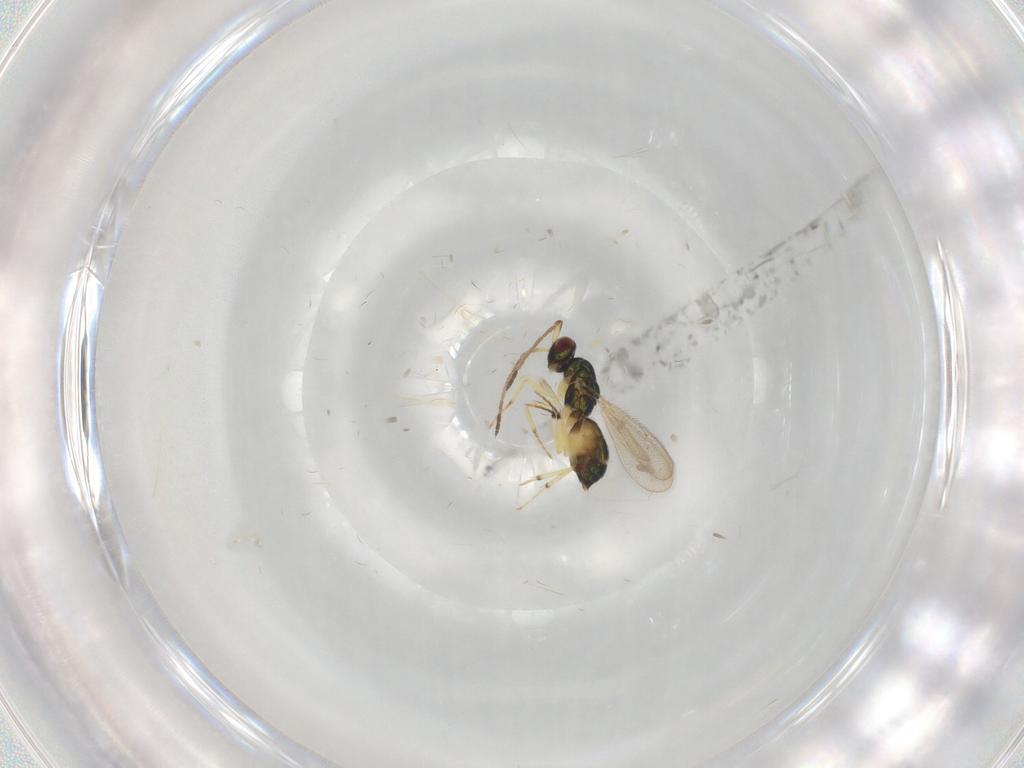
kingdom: Animalia
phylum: Arthropoda
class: Insecta
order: Hymenoptera
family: Eulophidae
